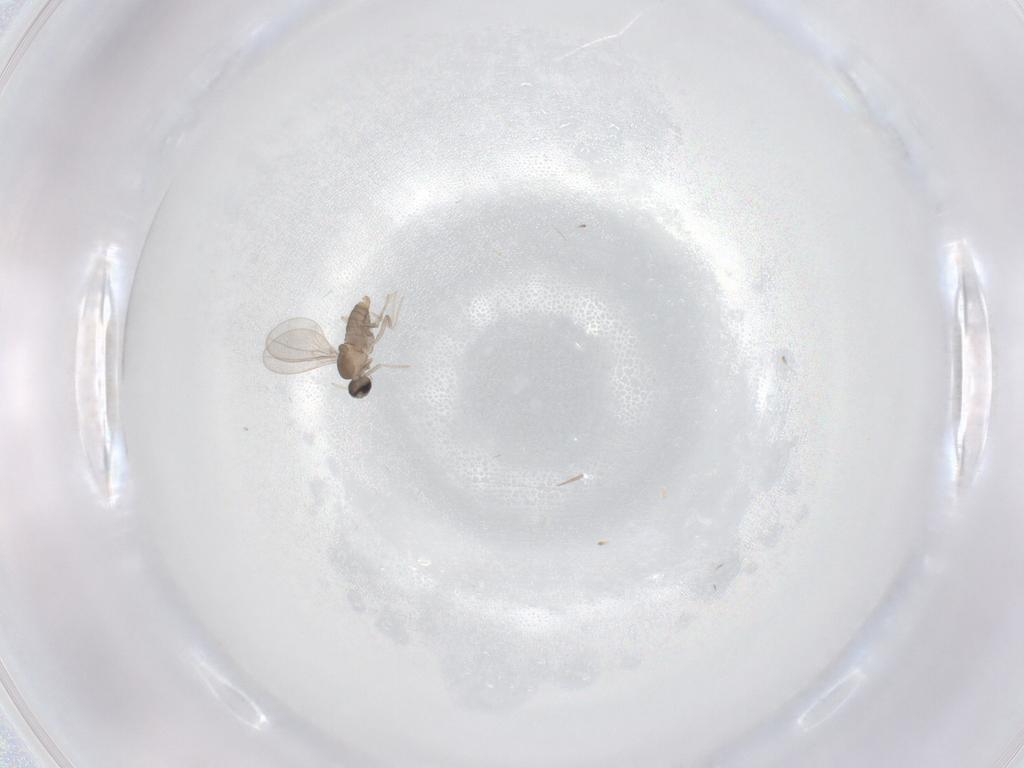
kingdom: Animalia
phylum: Arthropoda
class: Insecta
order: Diptera
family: Cecidomyiidae
